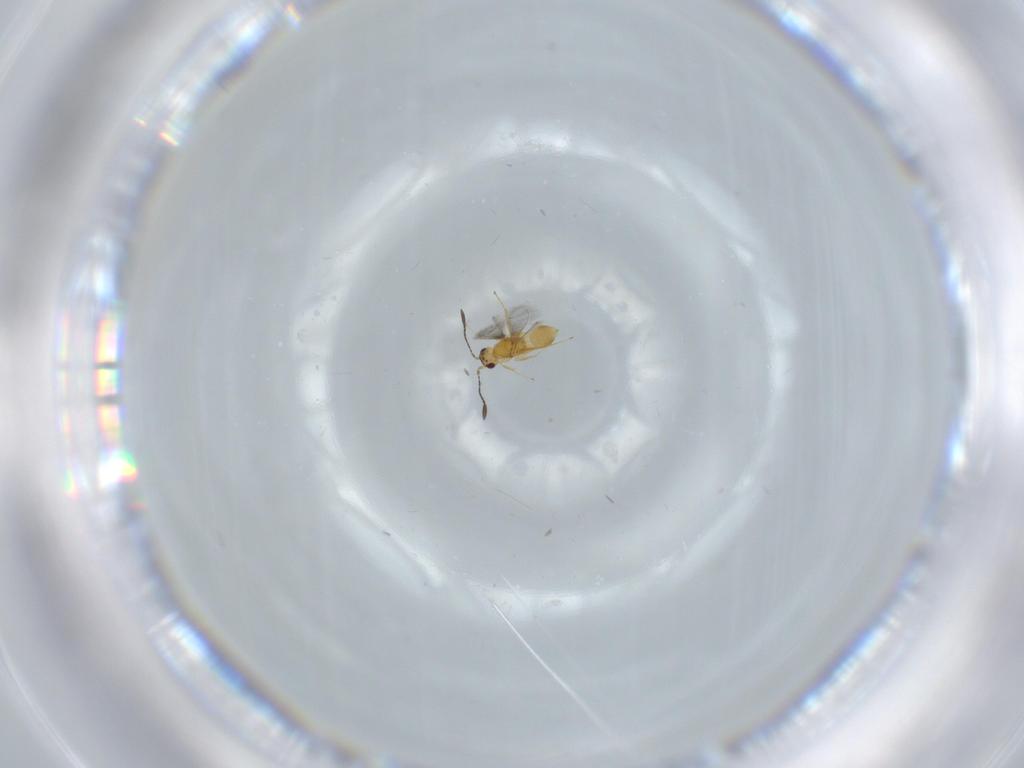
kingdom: Animalia
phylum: Arthropoda
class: Insecta
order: Hymenoptera
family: Mymaridae
